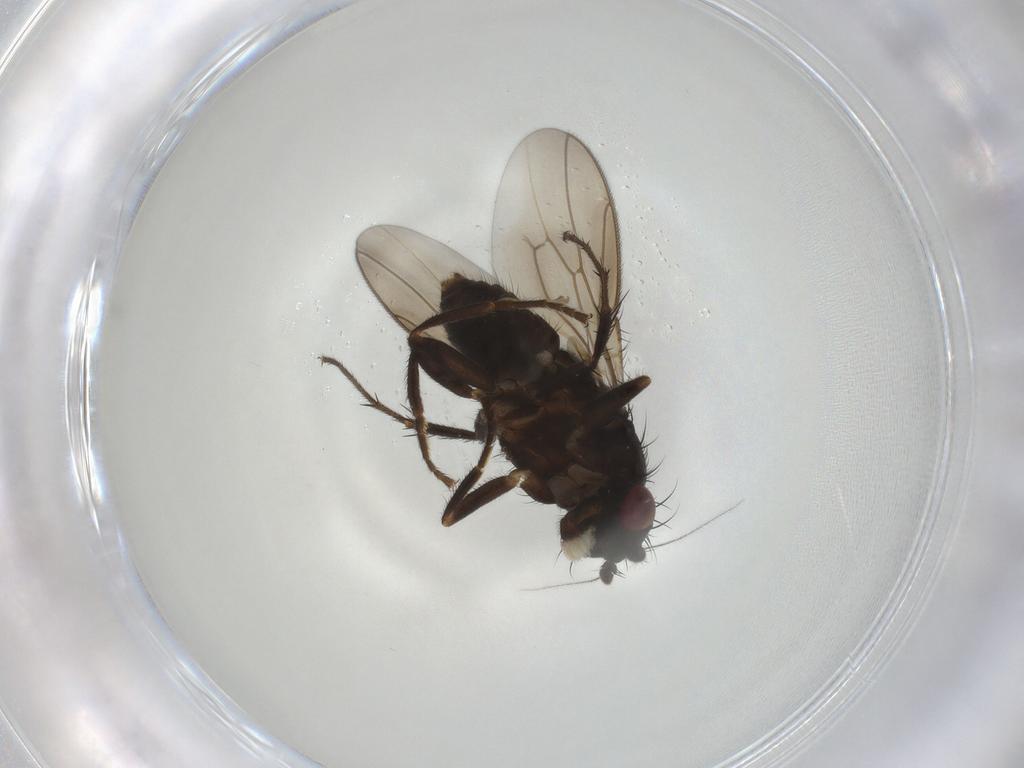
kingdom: Animalia
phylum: Arthropoda
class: Insecta
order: Diptera
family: Sphaeroceridae
